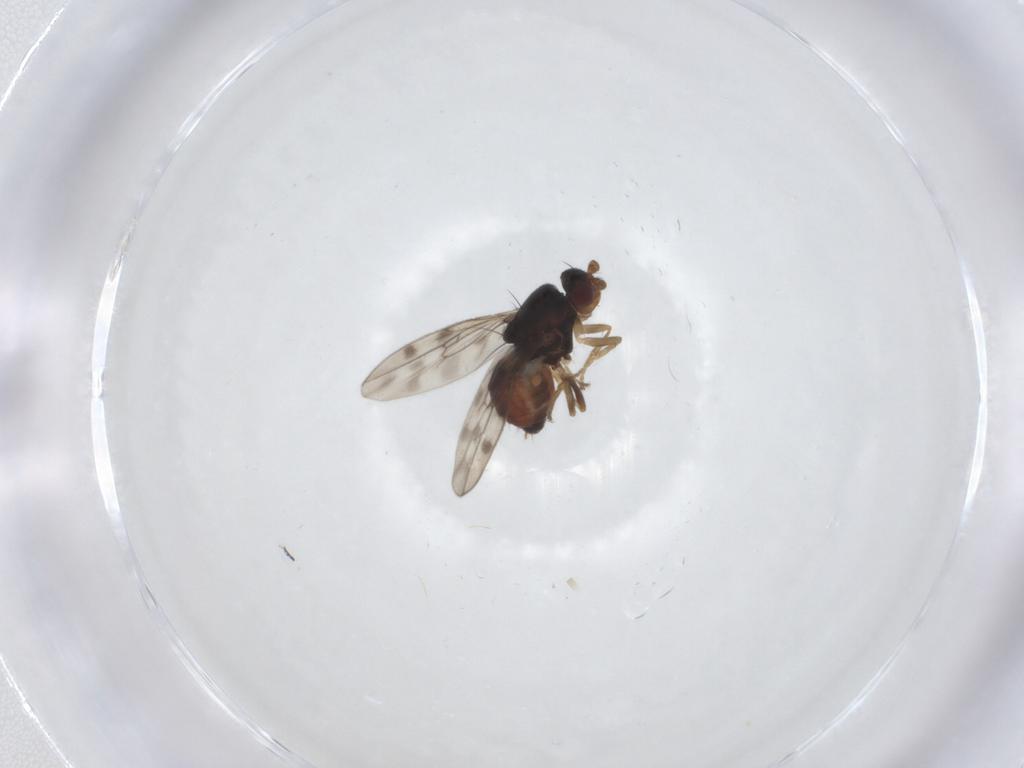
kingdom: Animalia
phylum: Arthropoda
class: Insecta
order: Diptera
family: Sphaeroceridae
